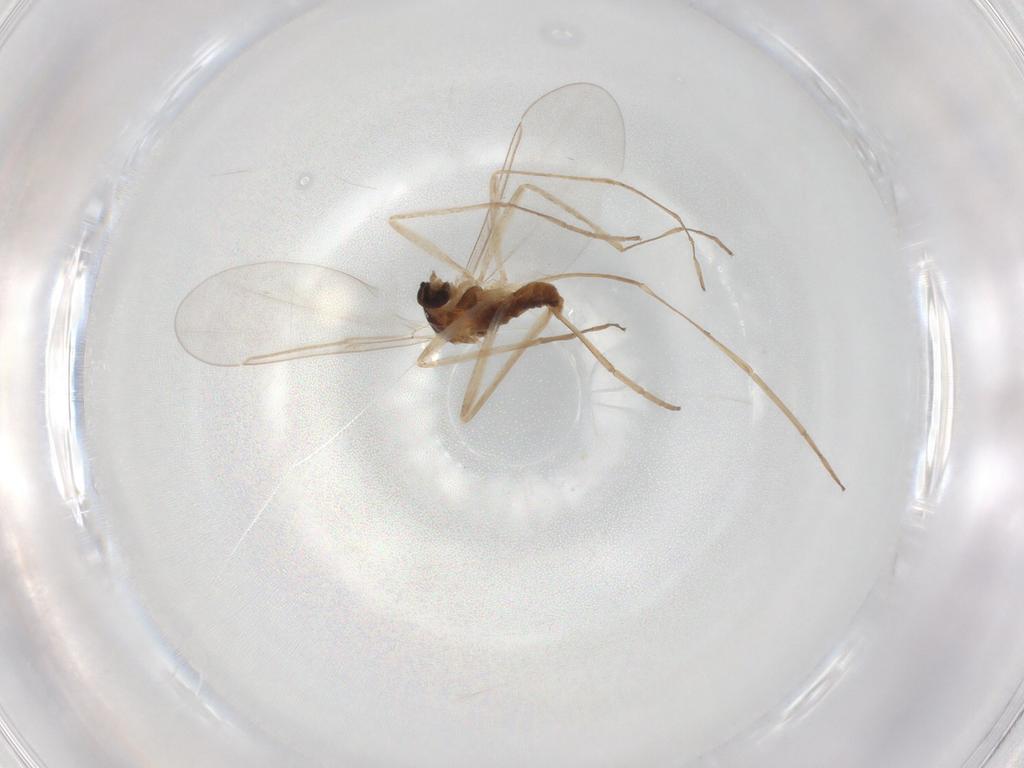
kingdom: Animalia
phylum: Arthropoda
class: Insecta
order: Diptera
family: Cecidomyiidae
